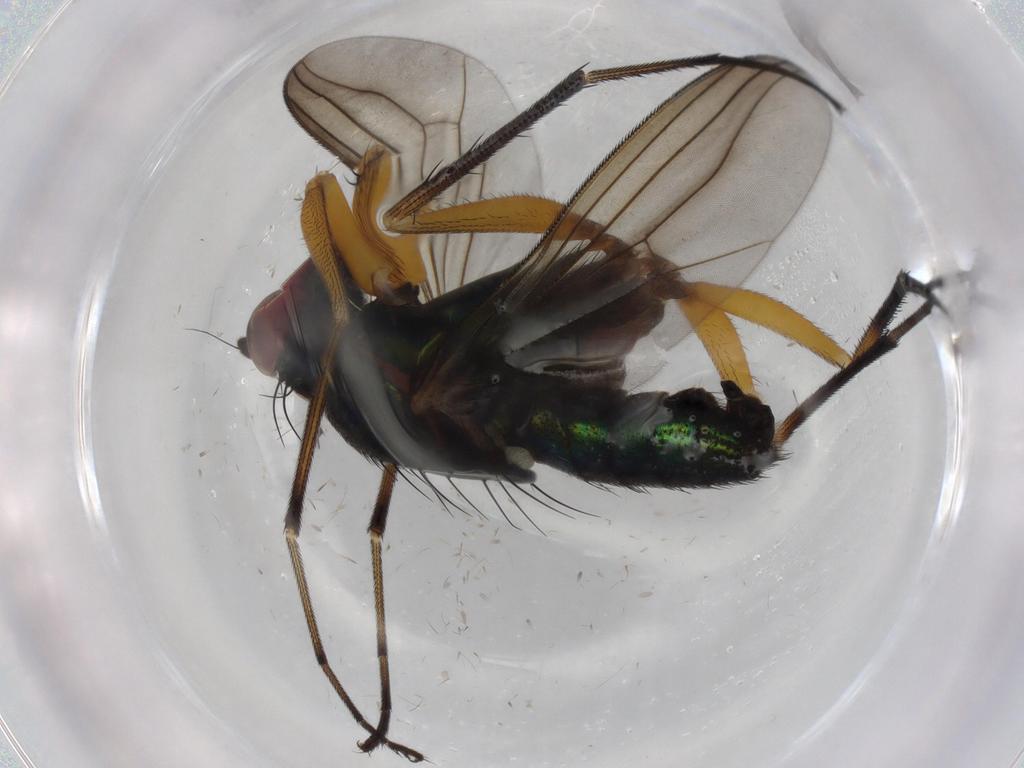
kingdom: Animalia
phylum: Arthropoda
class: Insecta
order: Diptera
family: Dolichopodidae
